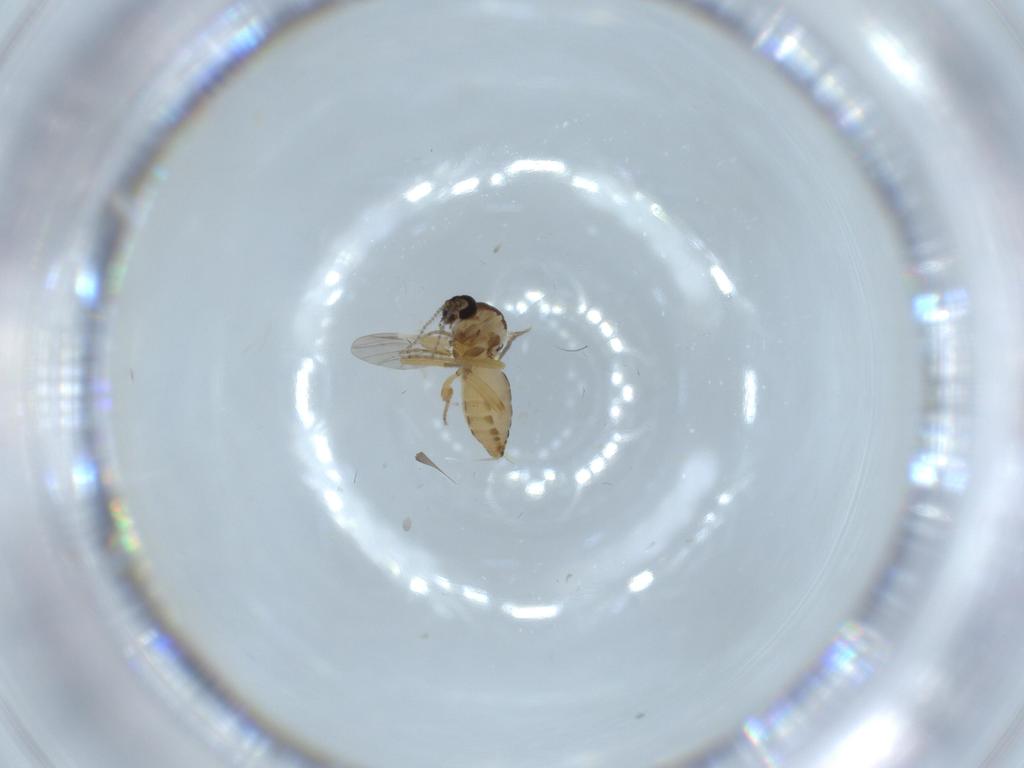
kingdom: Animalia
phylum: Arthropoda
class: Insecta
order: Diptera
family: Ceratopogonidae
